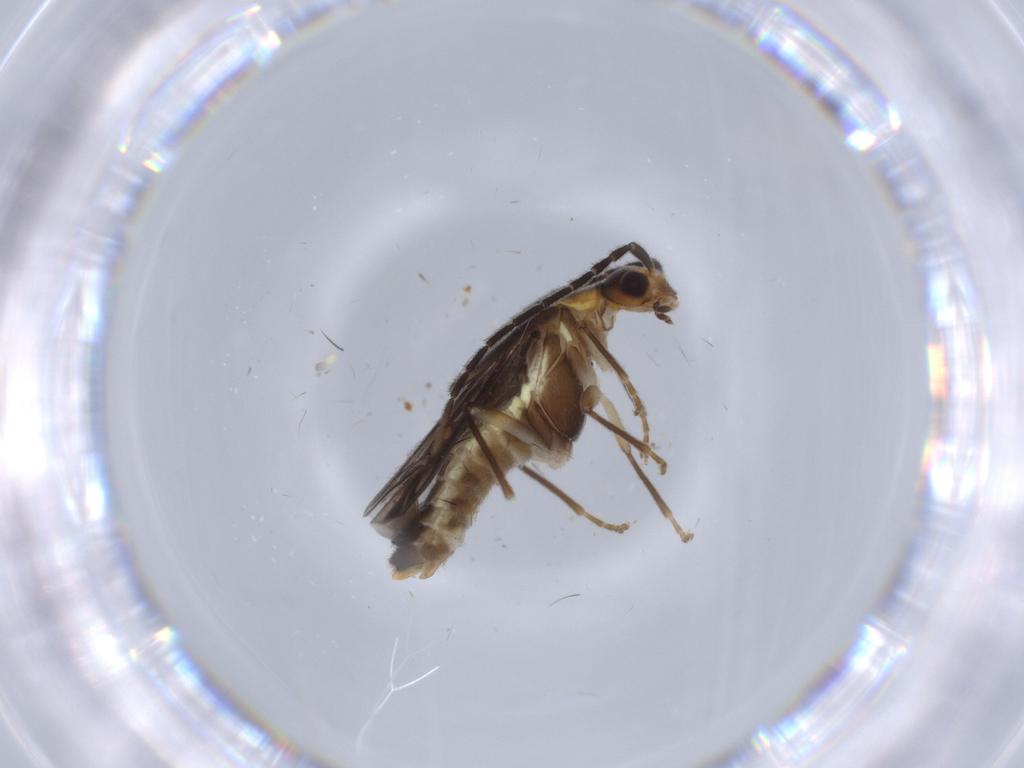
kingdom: Animalia
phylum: Arthropoda
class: Insecta
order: Coleoptera
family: Cantharidae
